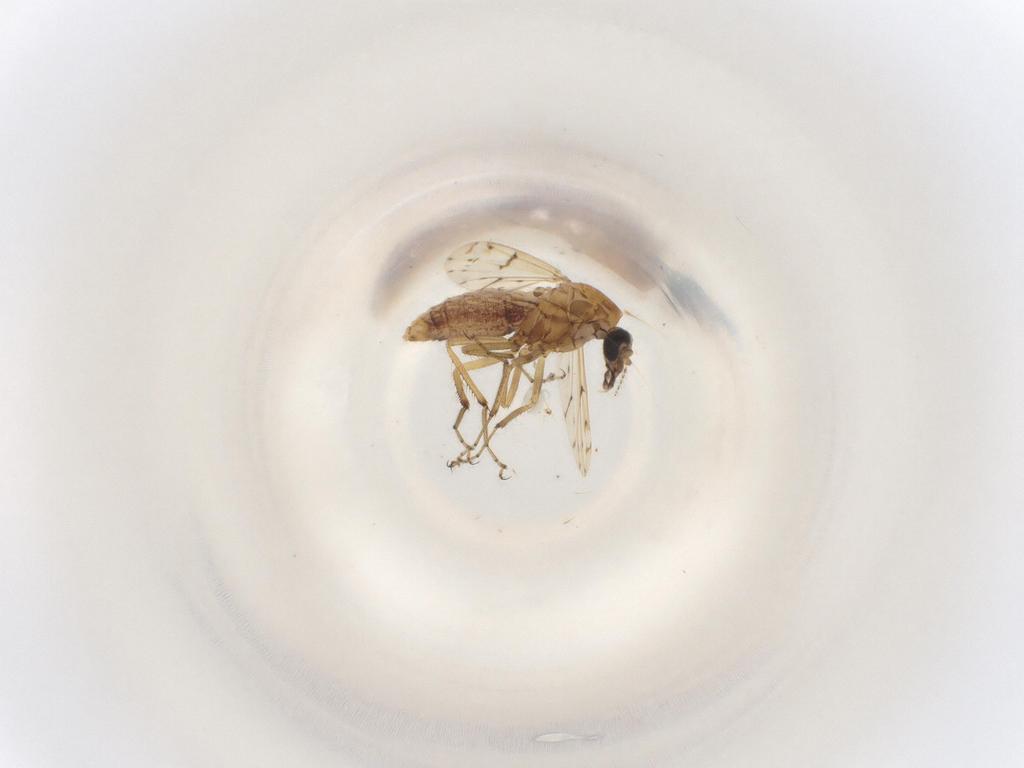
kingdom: Animalia
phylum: Arthropoda
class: Insecta
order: Diptera
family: Ceratopogonidae
